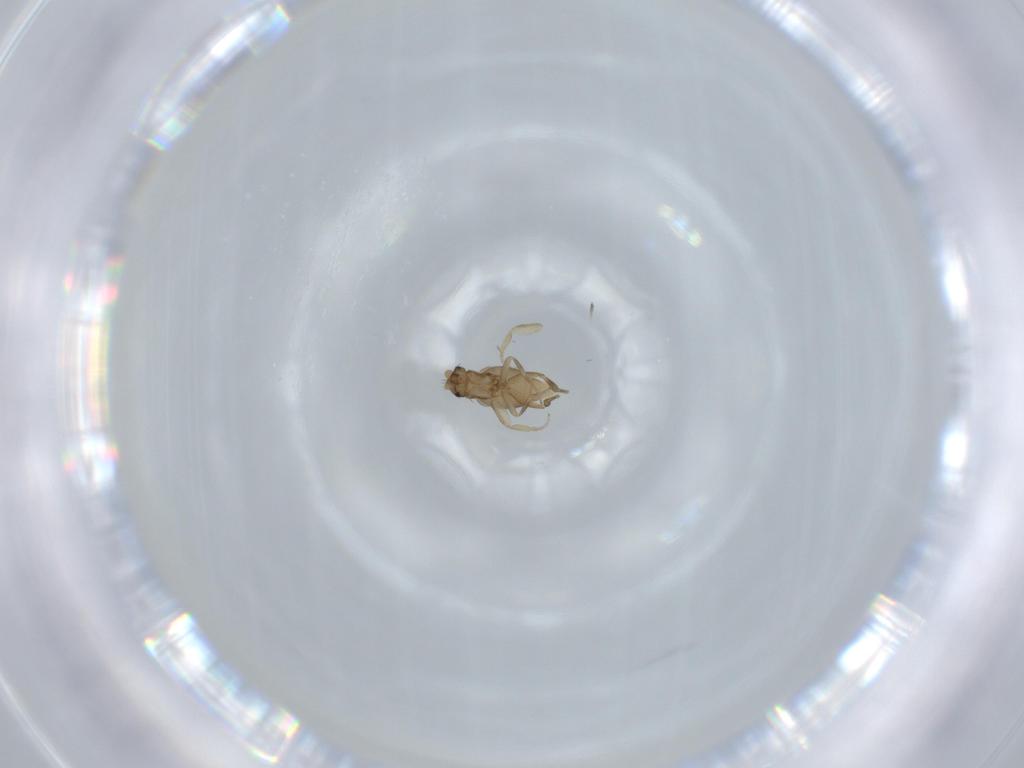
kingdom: Animalia
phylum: Arthropoda
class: Insecta
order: Diptera
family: Phoridae
